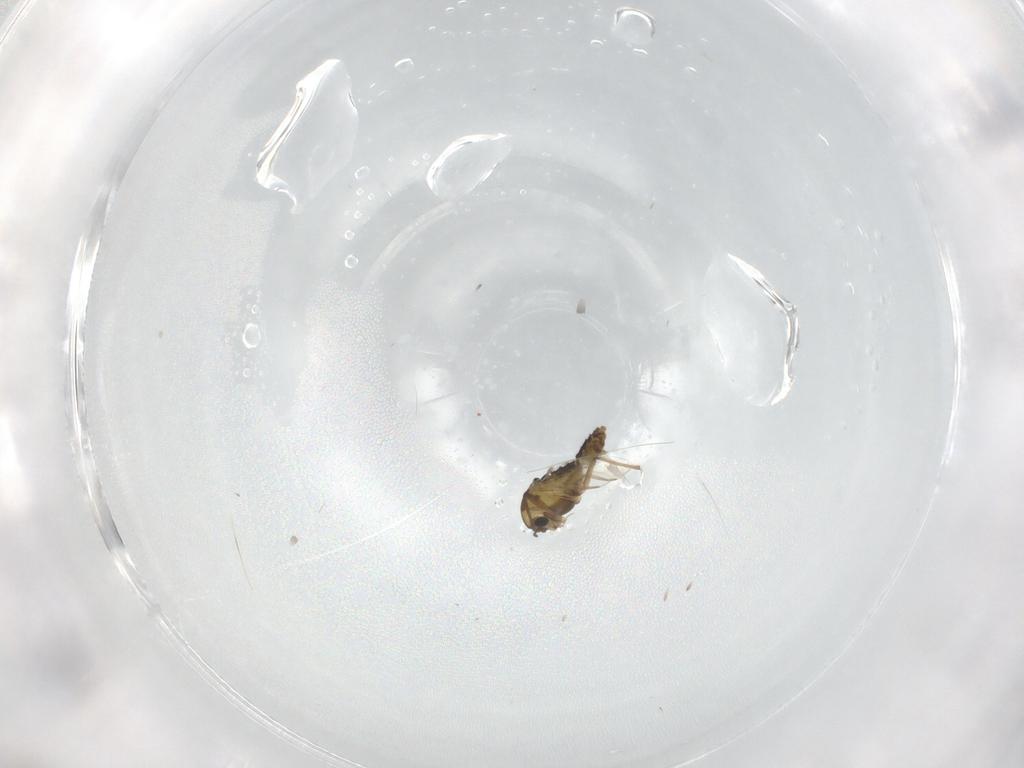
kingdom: Animalia
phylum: Arthropoda
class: Insecta
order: Diptera
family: Chironomidae
